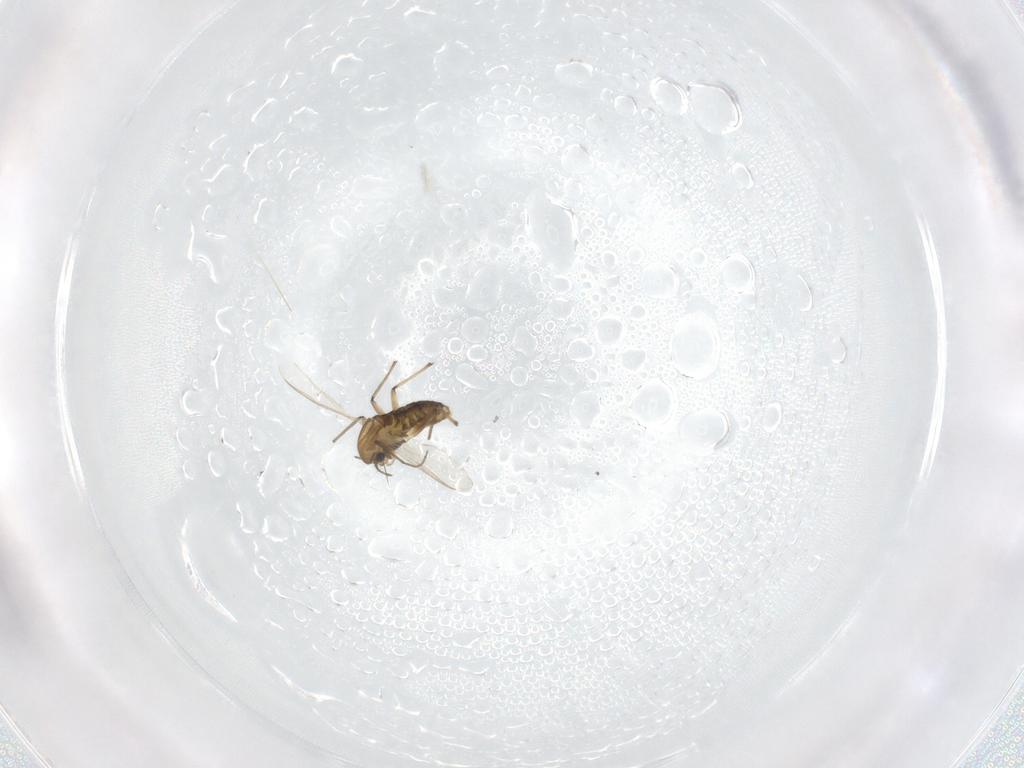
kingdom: Animalia
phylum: Arthropoda
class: Insecta
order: Diptera
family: Chironomidae
